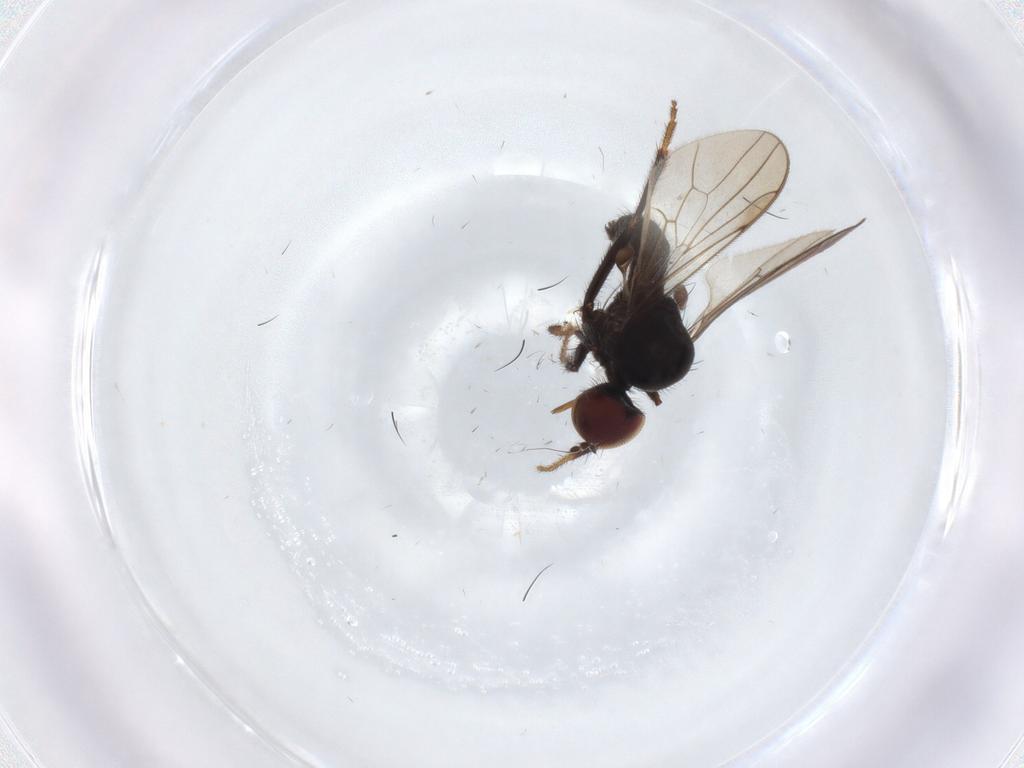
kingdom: Animalia
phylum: Arthropoda
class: Insecta
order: Diptera
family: Hybotidae
